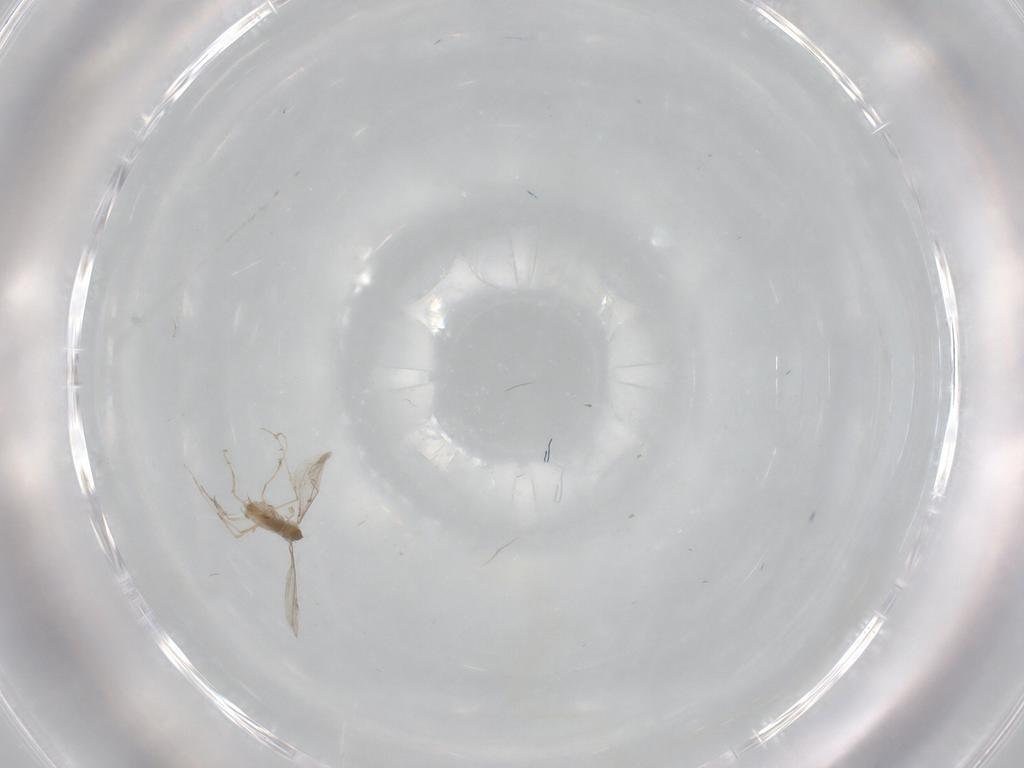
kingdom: Animalia
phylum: Arthropoda
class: Insecta
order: Diptera
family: Cecidomyiidae
